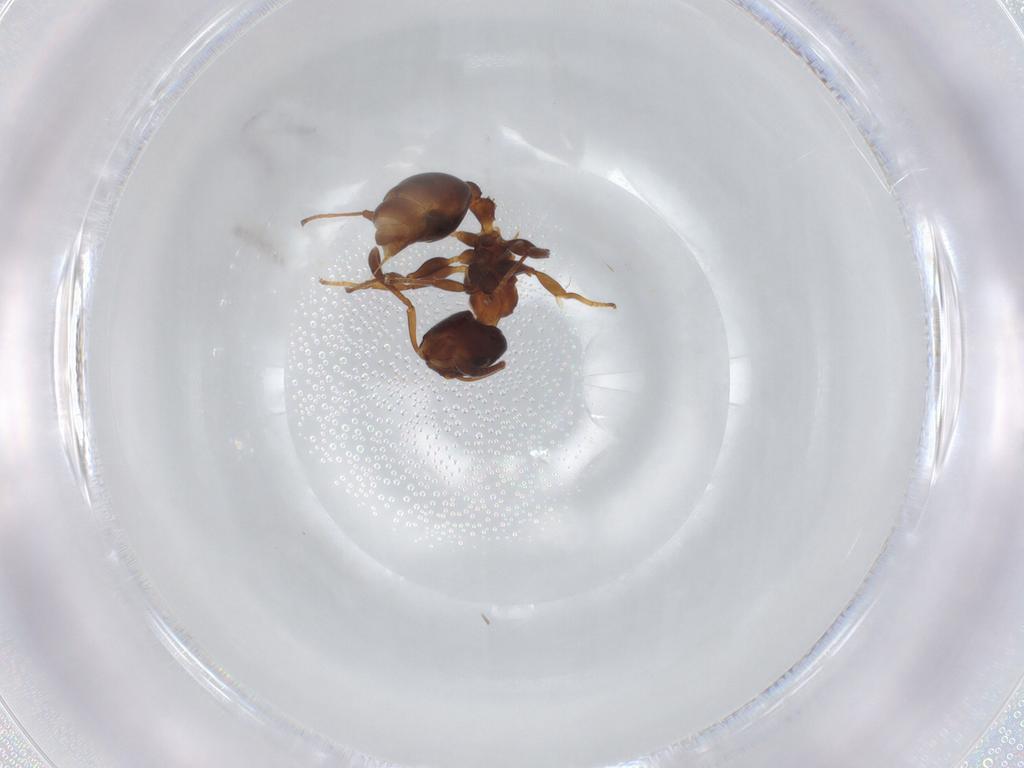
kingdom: Animalia
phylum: Arthropoda
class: Insecta
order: Hymenoptera
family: Formicidae
